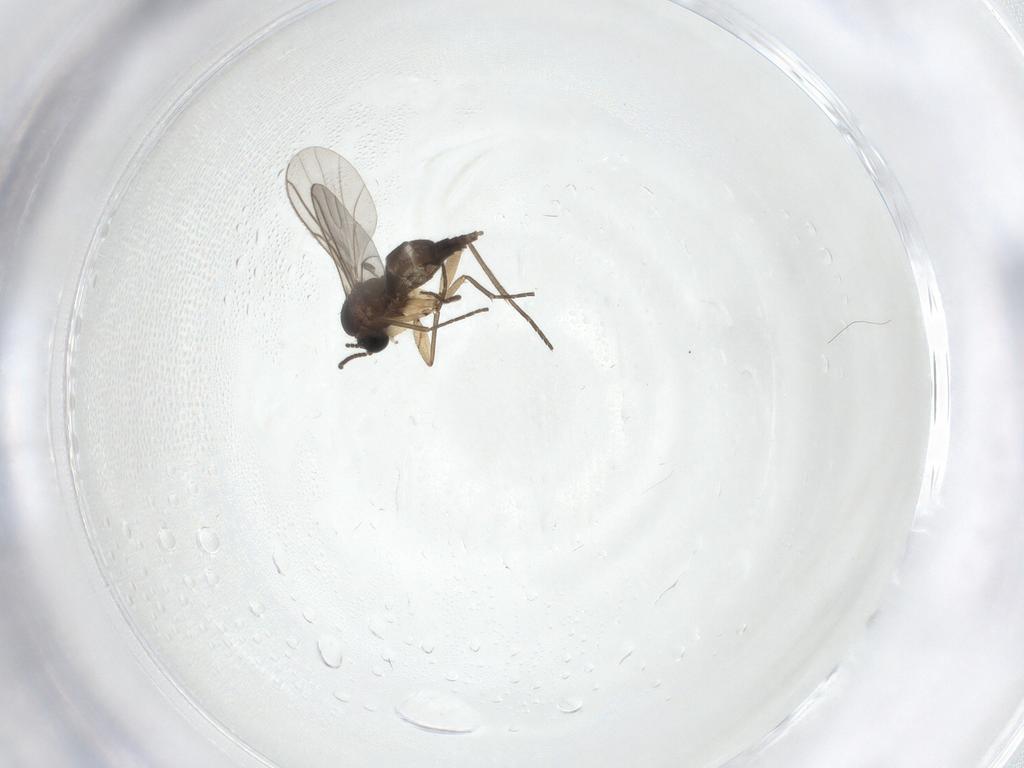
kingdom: Animalia
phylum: Arthropoda
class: Insecta
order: Diptera
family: Sciaridae
